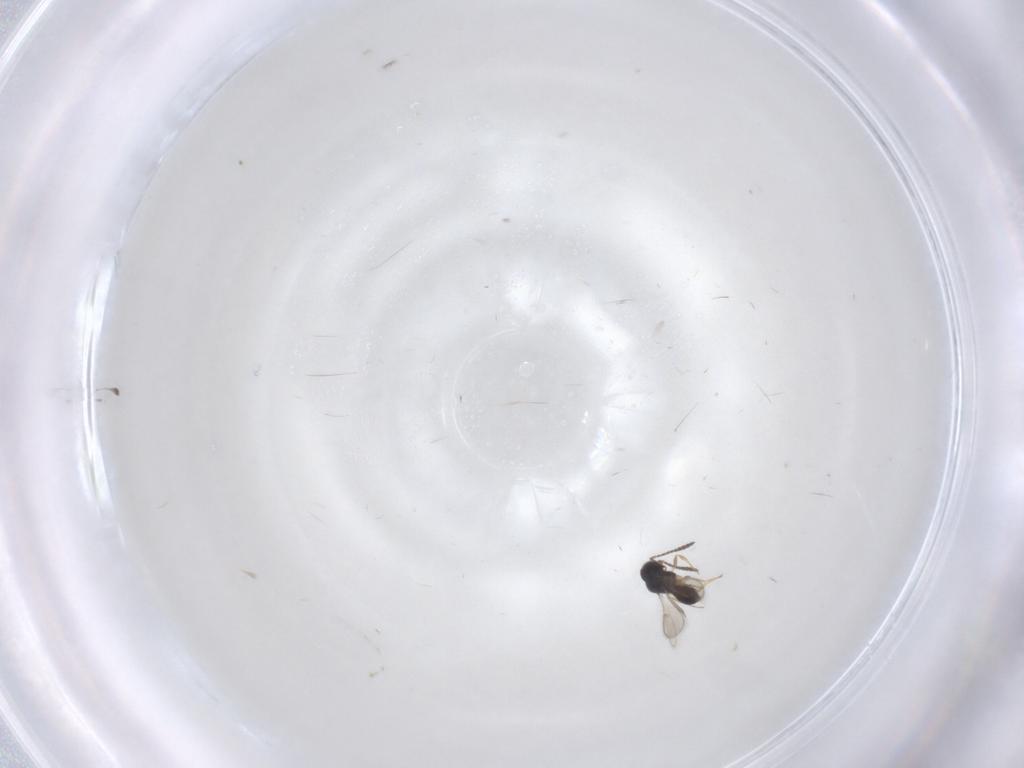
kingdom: Animalia
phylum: Arthropoda
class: Insecta
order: Hymenoptera
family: Scelionidae
